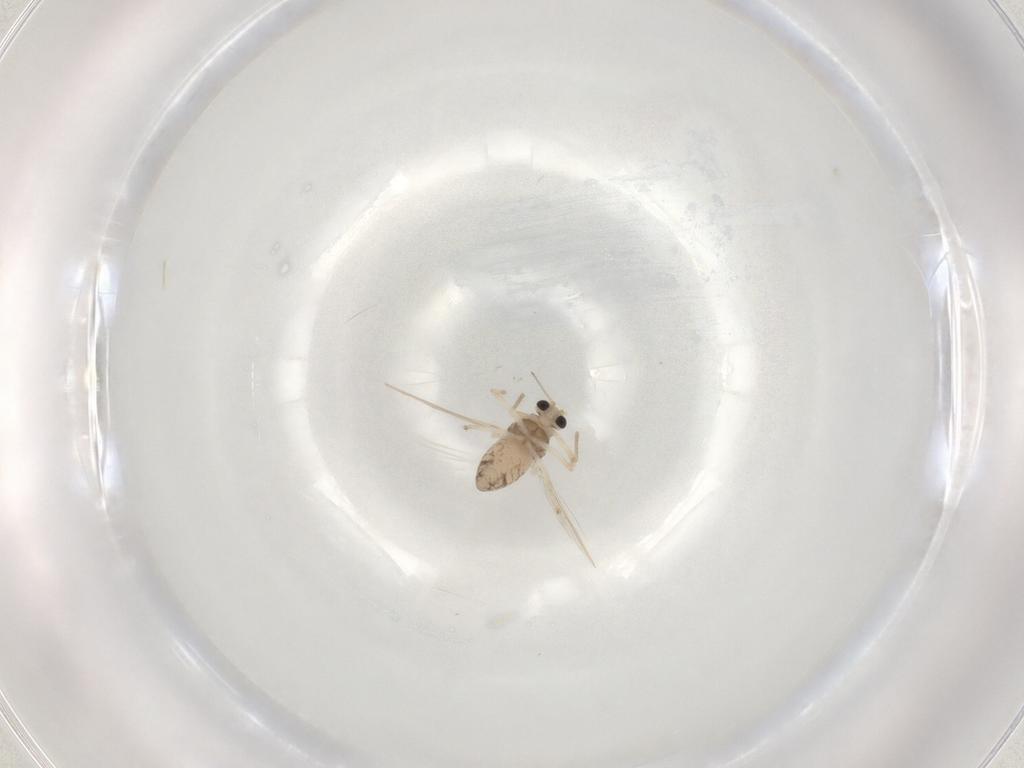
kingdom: Animalia
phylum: Arthropoda
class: Insecta
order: Diptera
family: Chironomidae
